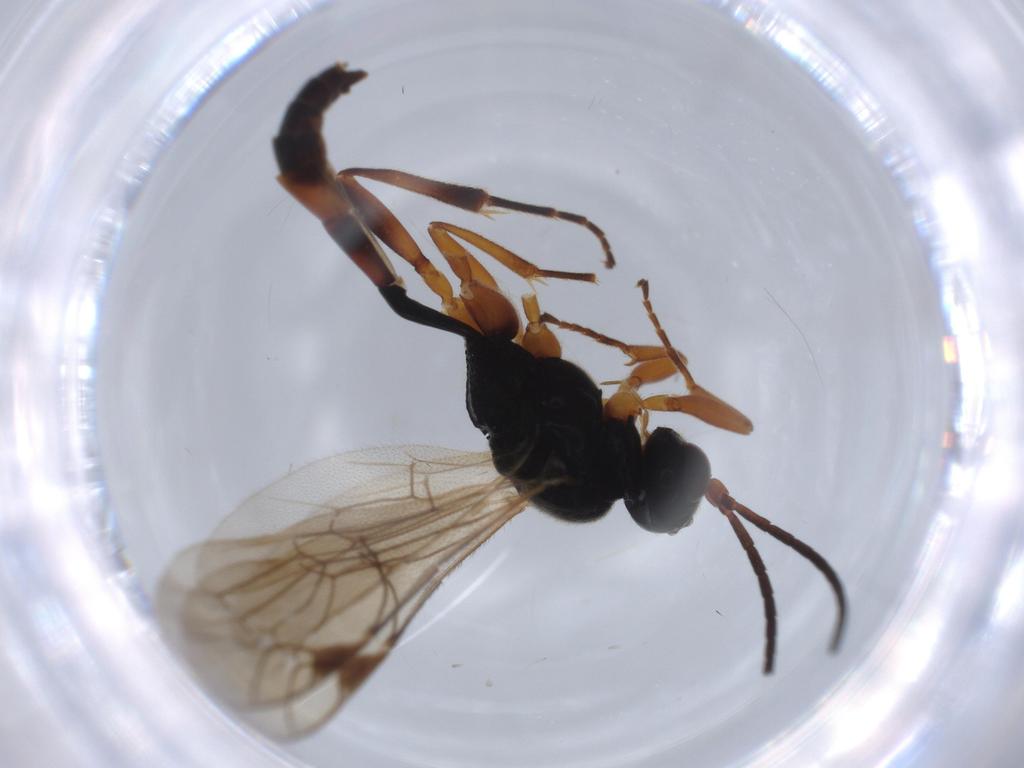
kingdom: Animalia
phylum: Arthropoda
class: Insecta
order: Hymenoptera
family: Ichneumonidae
